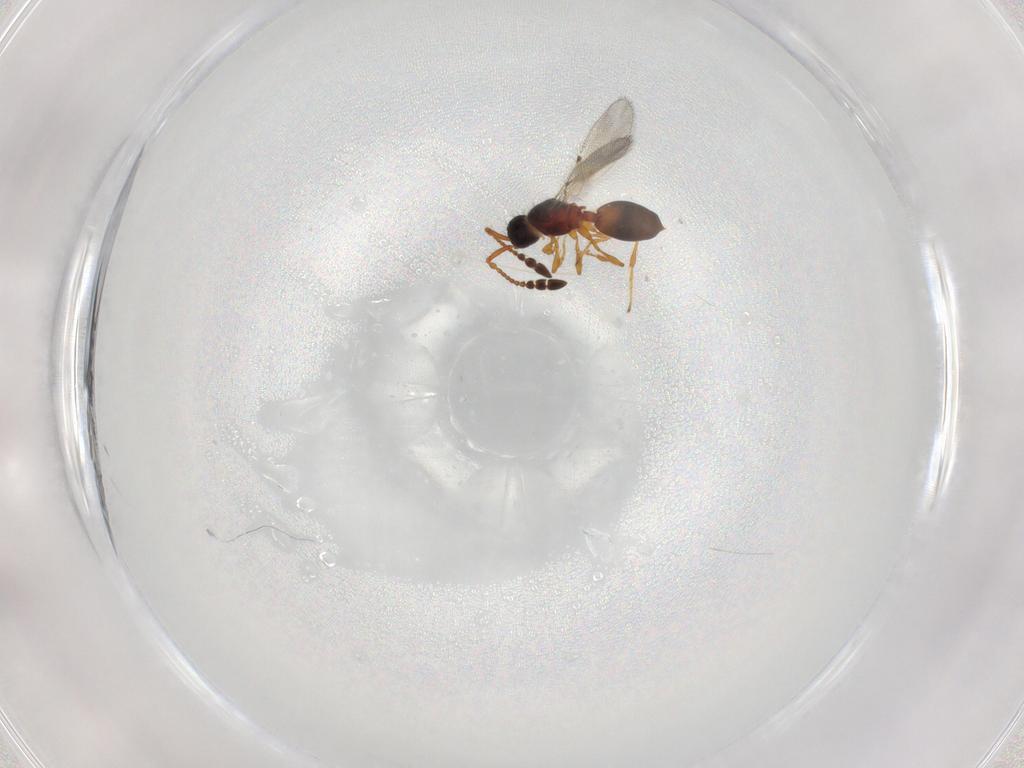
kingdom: Animalia
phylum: Arthropoda
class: Insecta
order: Hymenoptera
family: Diapriidae
